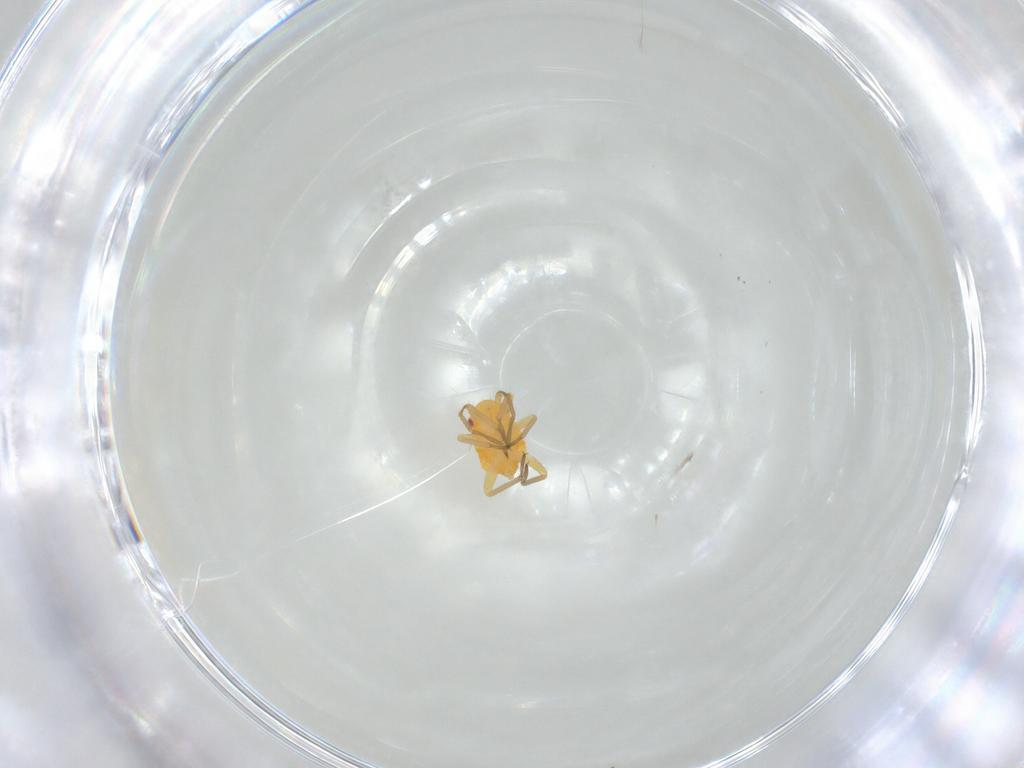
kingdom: Animalia
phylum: Arthropoda
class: Insecta
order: Hemiptera
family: Miridae
